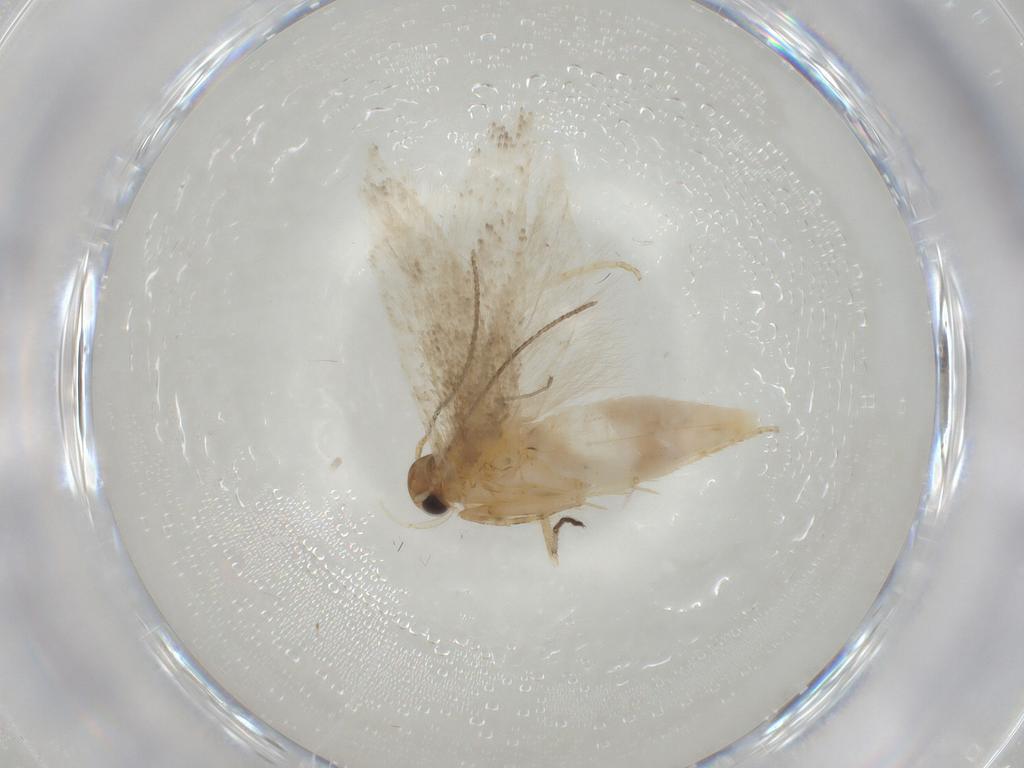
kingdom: Animalia
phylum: Arthropoda
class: Insecta
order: Lepidoptera
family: Gelechiidae
